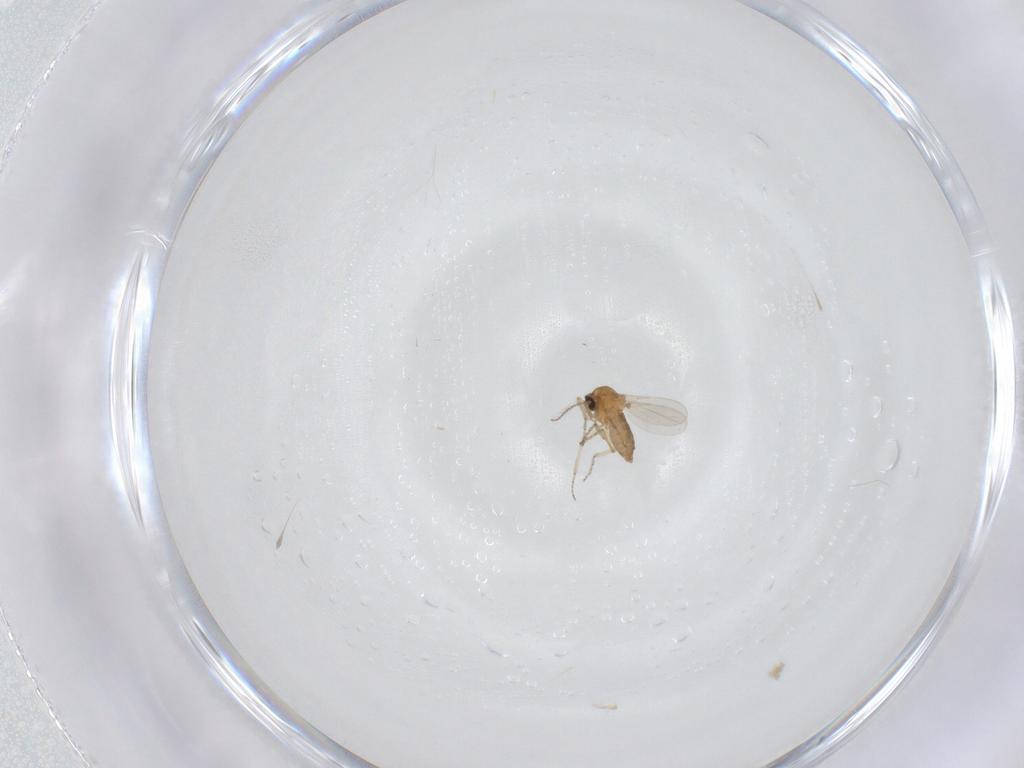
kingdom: Animalia
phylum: Arthropoda
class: Insecta
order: Diptera
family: Ceratopogonidae
